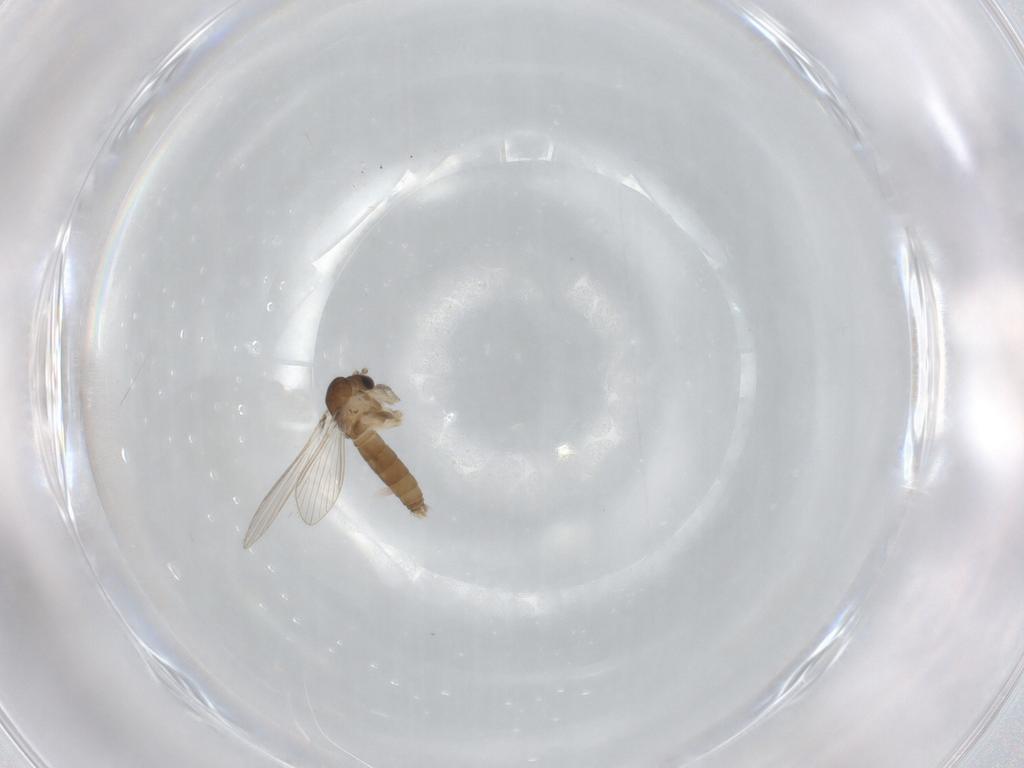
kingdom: Animalia
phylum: Arthropoda
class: Insecta
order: Diptera
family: Psychodidae
